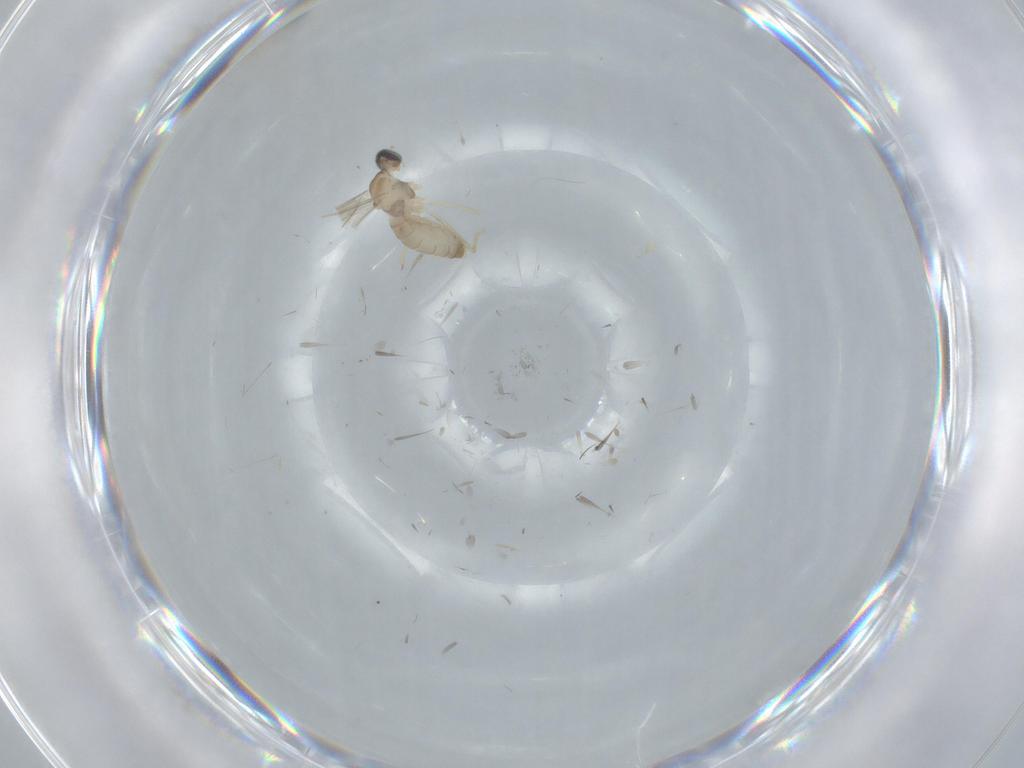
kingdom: Animalia
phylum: Arthropoda
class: Insecta
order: Diptera
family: Cecidomyiidae
